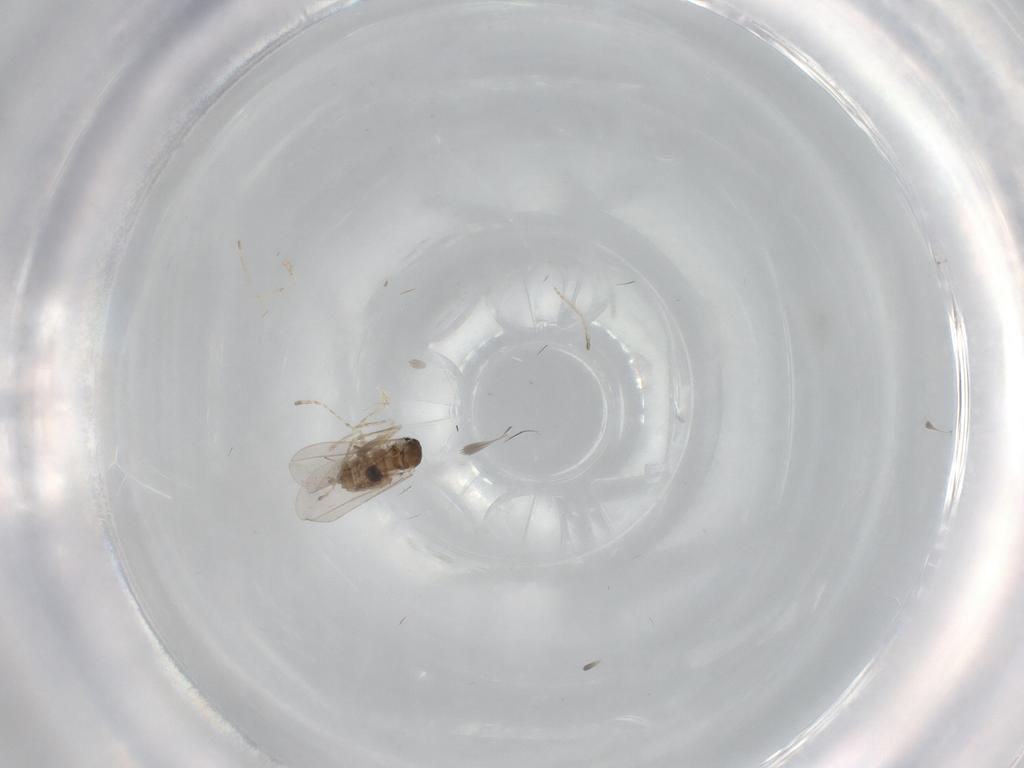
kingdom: Animalia
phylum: Arthropoda
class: Insecta
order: Diptera
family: Cecidomyiidae
